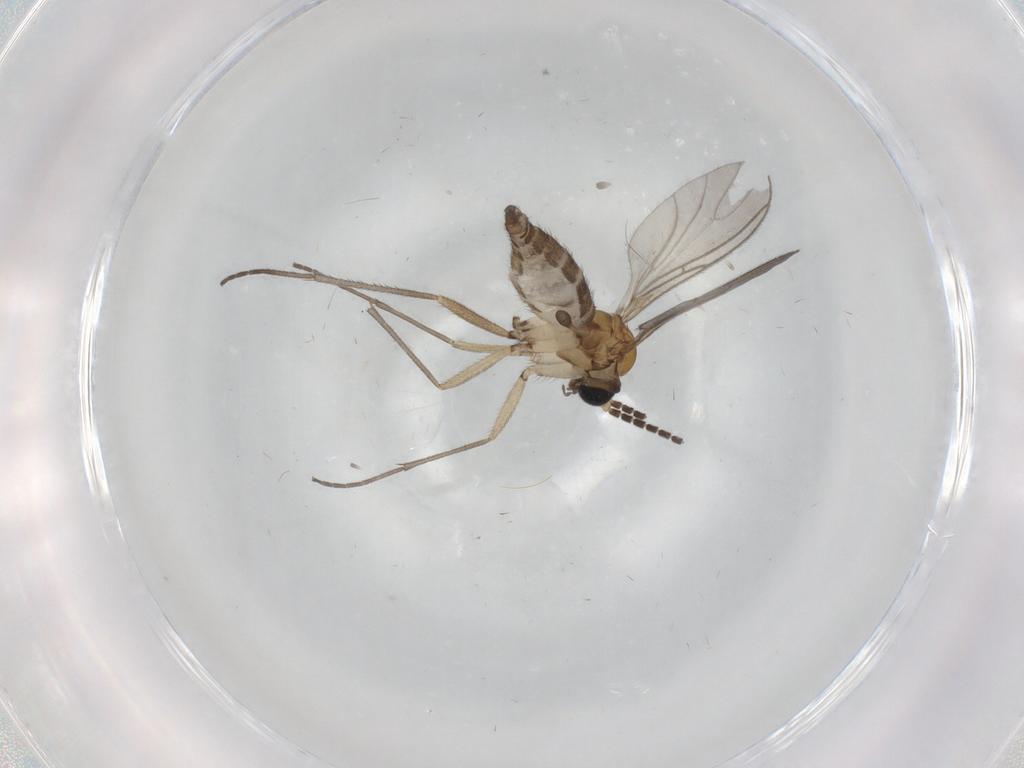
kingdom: Animalia
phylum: Arthropoda
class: Insecta
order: Diptera
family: Sciaridae
